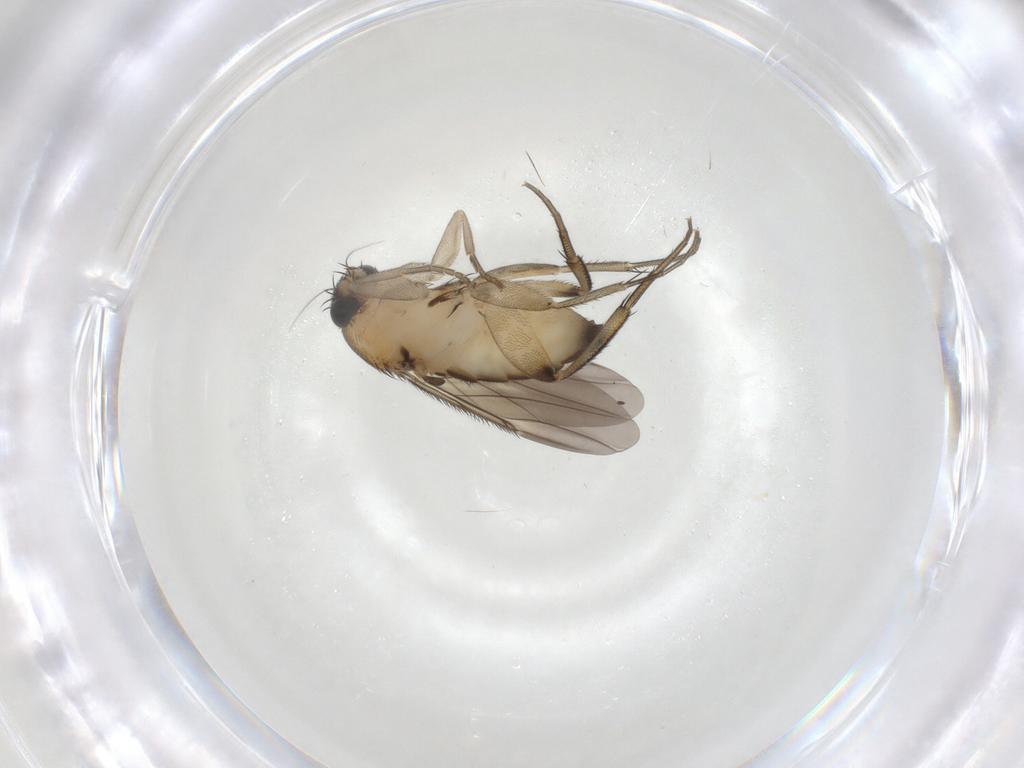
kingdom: Animalia
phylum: Arthropoda
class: Insecta
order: Diptera
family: Phoridae
